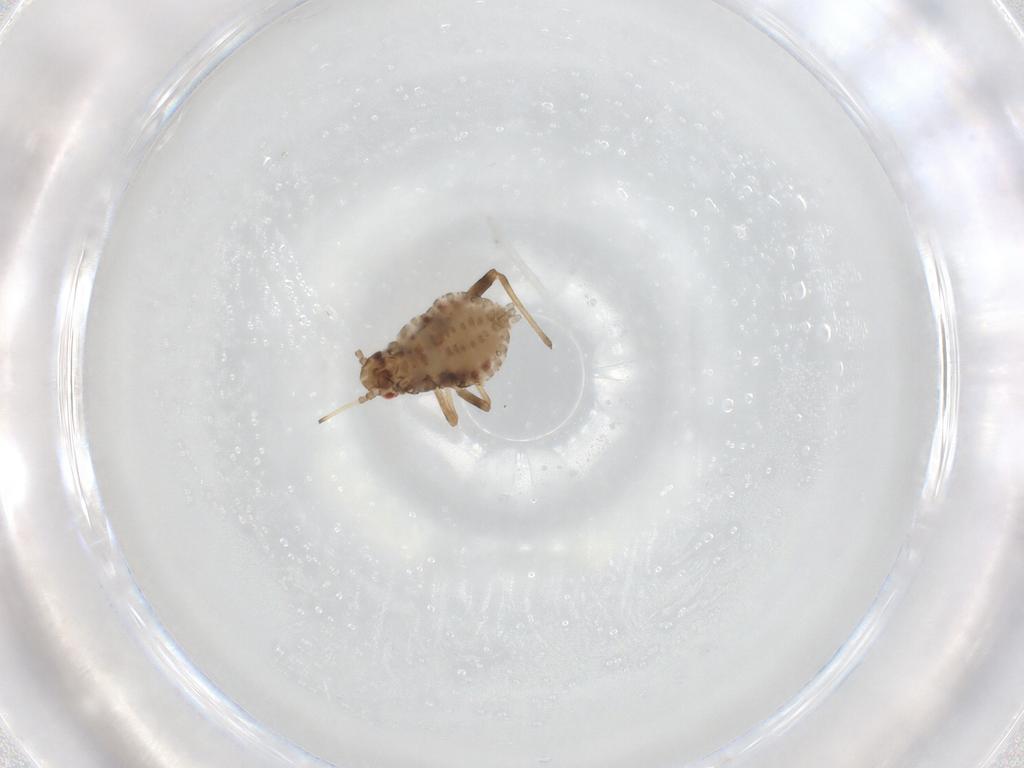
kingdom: Animalia
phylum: Arthropoda
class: Insecta
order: Hemiptera
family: Aphididae
